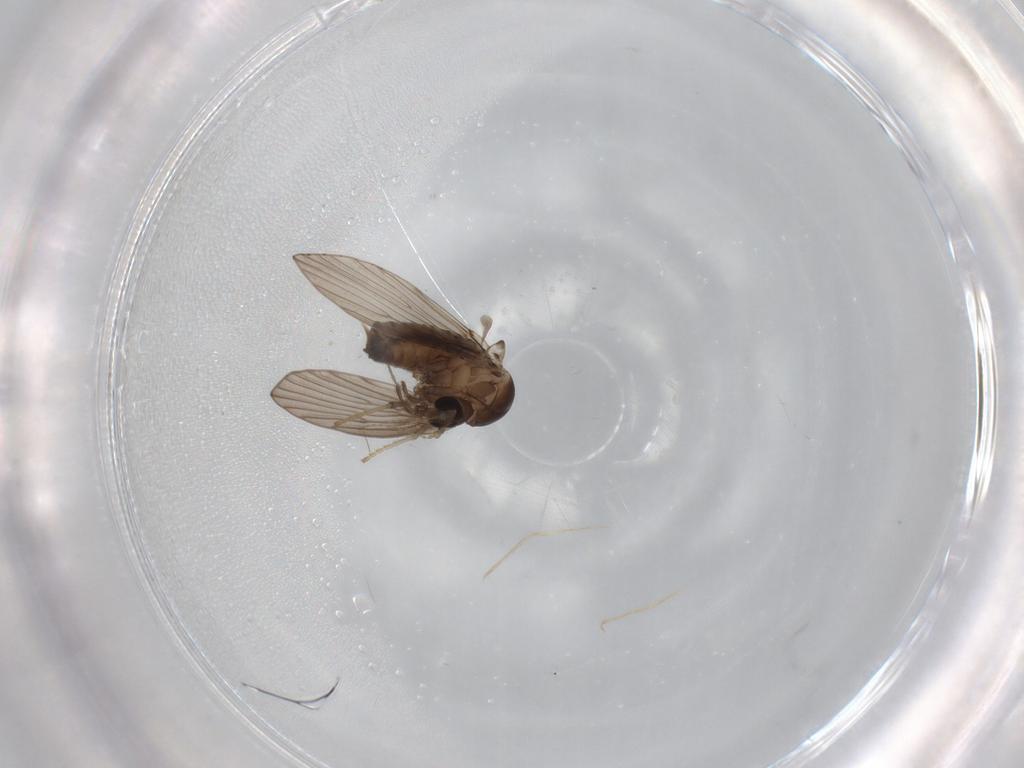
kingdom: Animalia
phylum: Arthropoda
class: Insecta
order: Diptera
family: Psychodidae
